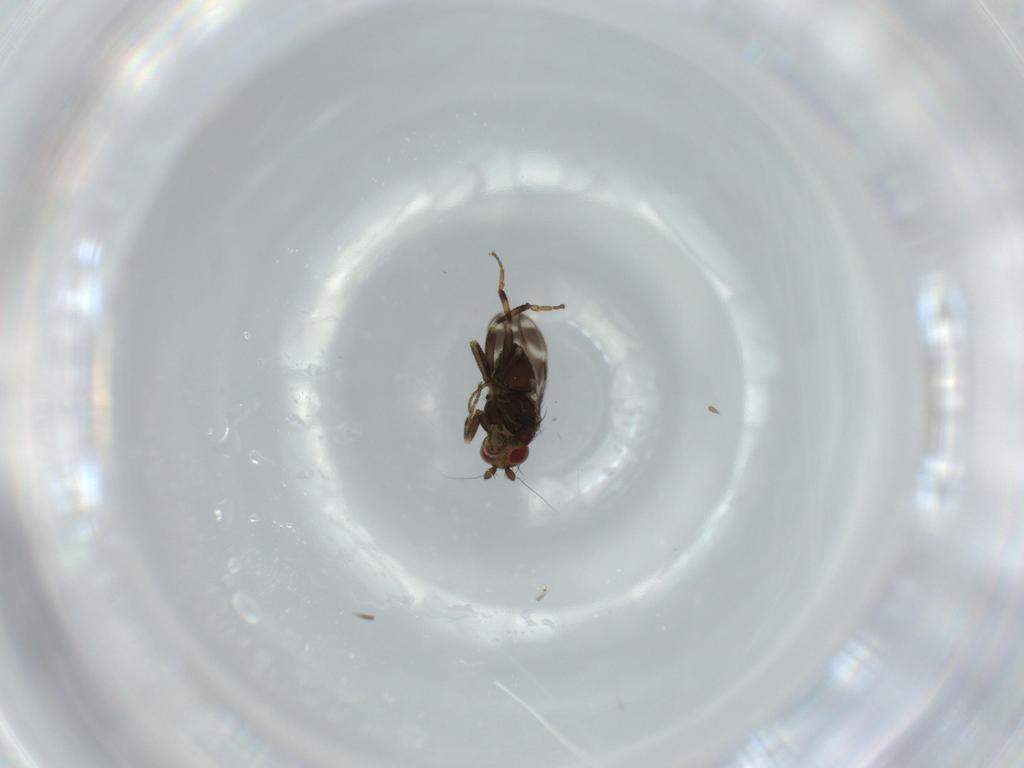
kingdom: Animalia
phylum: Arthropoda
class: Insecta
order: Diptera
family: Sphaeroceridae
